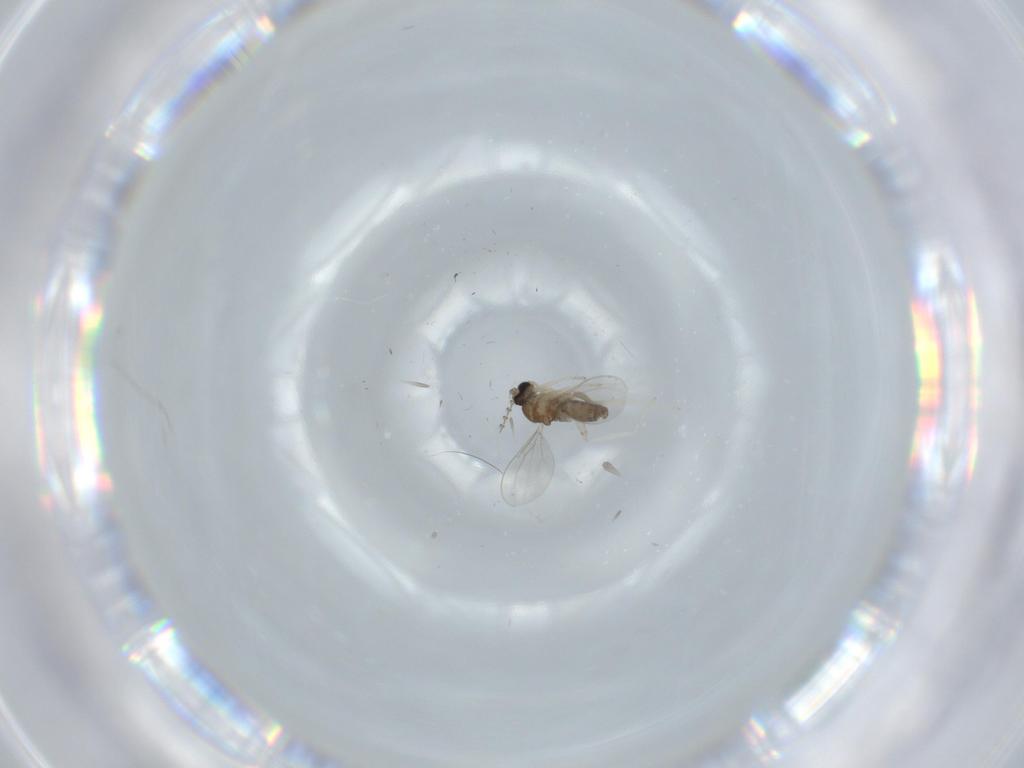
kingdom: Animalia
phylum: Arthropoda
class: Insecta
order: Diptera
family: Cecidomyiidae
